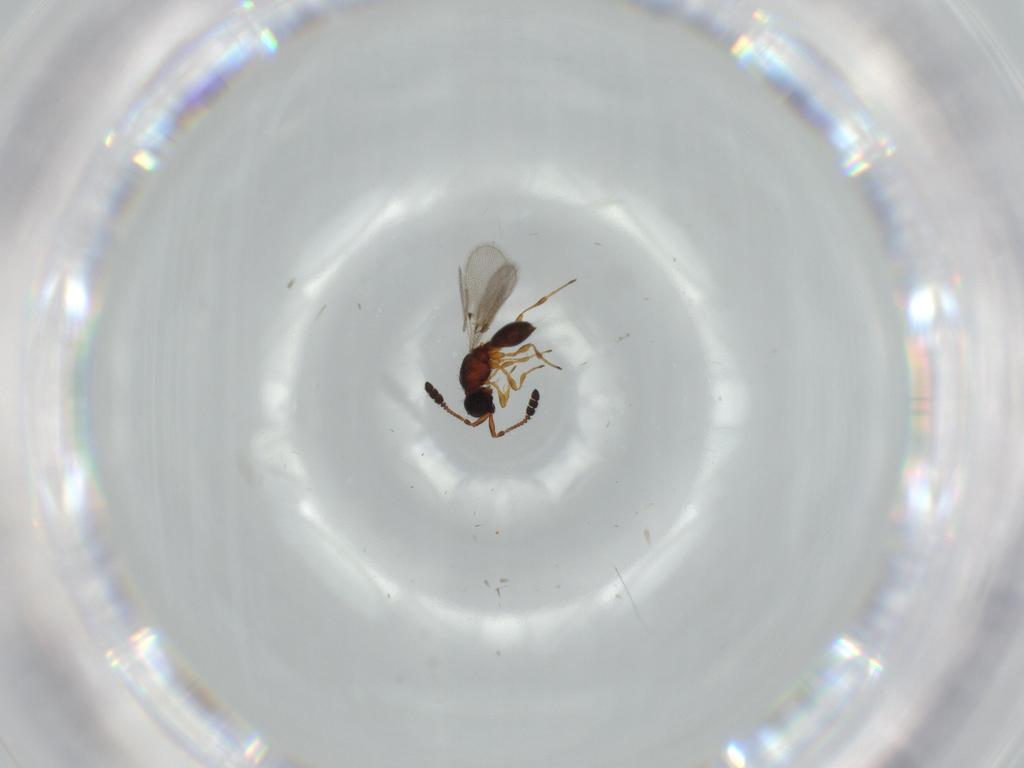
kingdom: Animalia
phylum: Arthropoda
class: Insecta
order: Hymenoptera
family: Diapriidae
